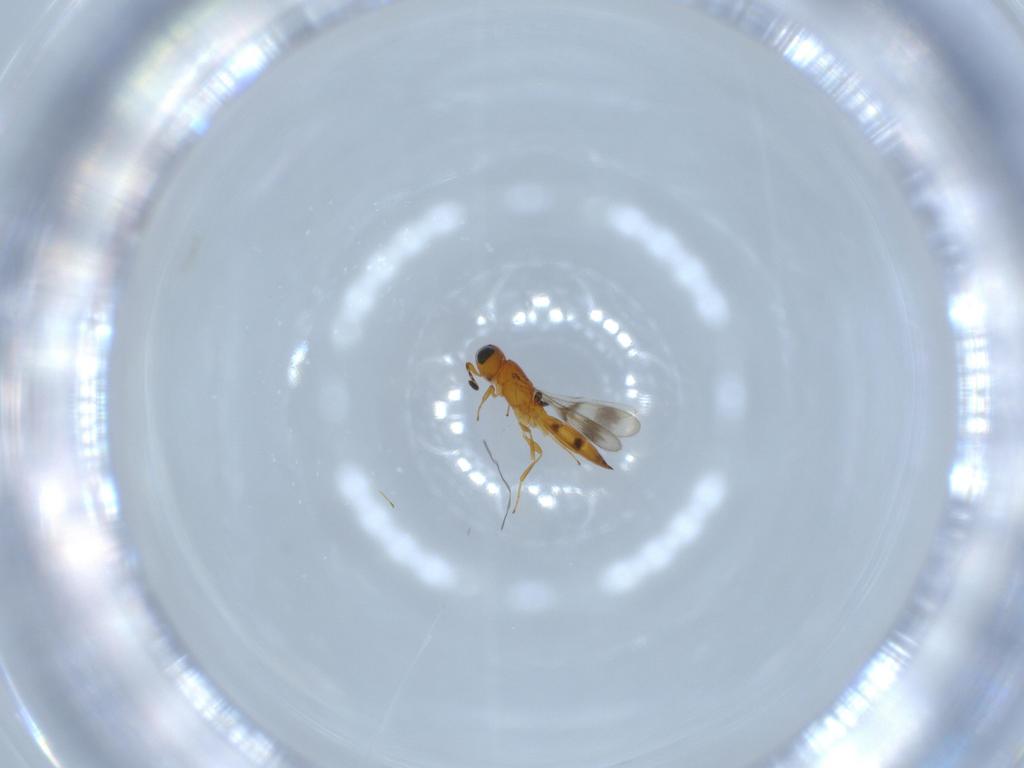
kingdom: Animalia
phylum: Arthropoda
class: Insecta
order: Hymenoptera
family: Scelionidae
